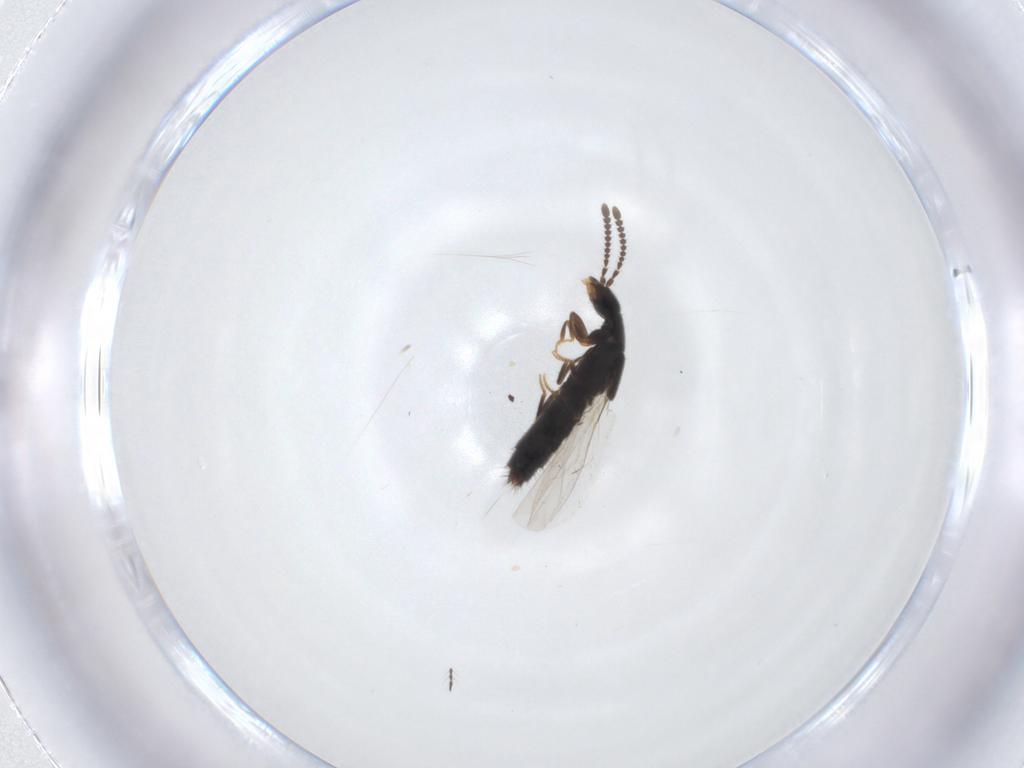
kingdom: Animalia
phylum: Arthropoda
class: Insecta
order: Coleoptera
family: Staphylinidae
